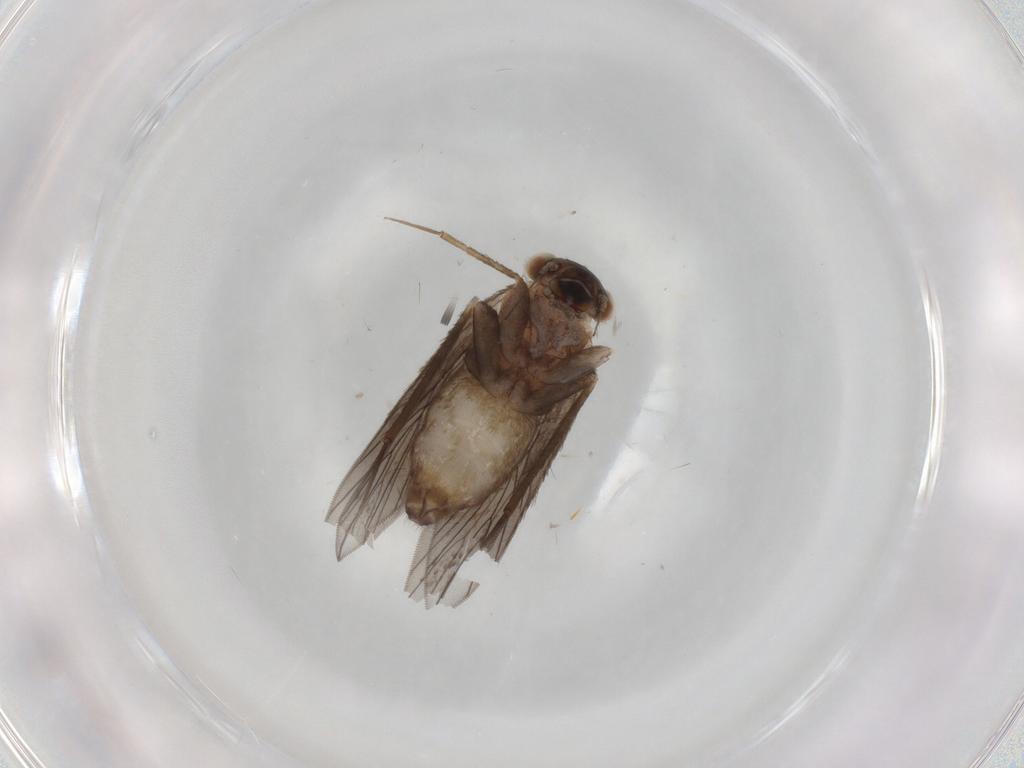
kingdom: Animalia
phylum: Arthropoda
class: Insecta
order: Psocodea
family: Lepidopsocidae
